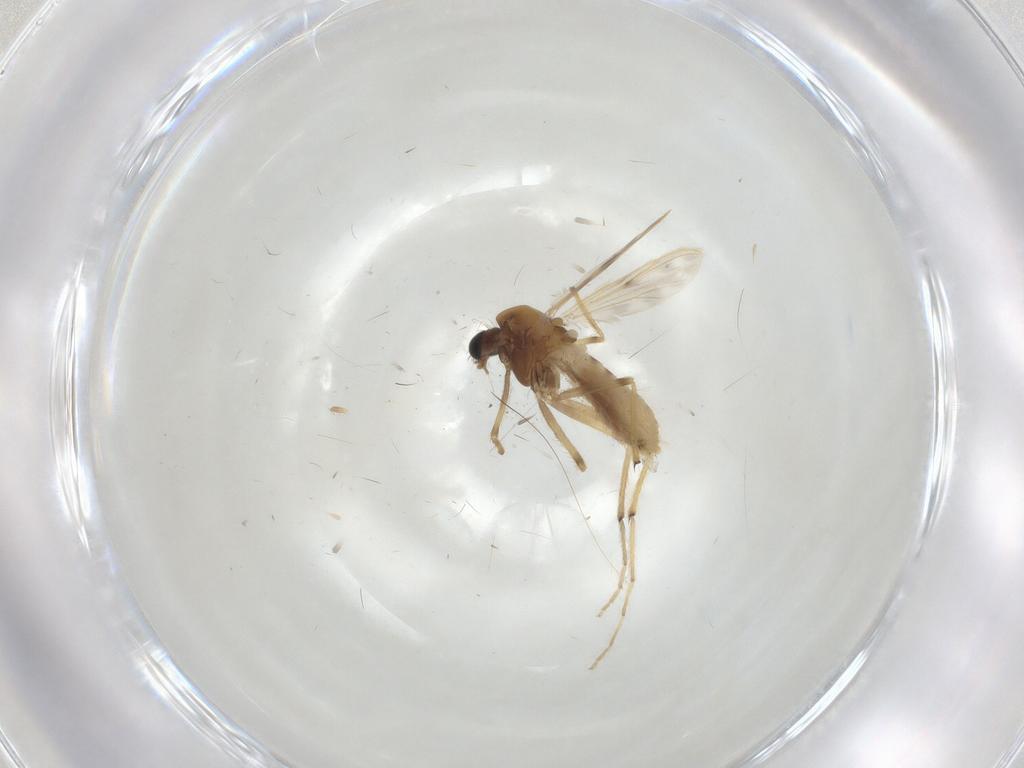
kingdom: Animalia
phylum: Arthropoda
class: Insecta
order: Diptera
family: Chironomidae
